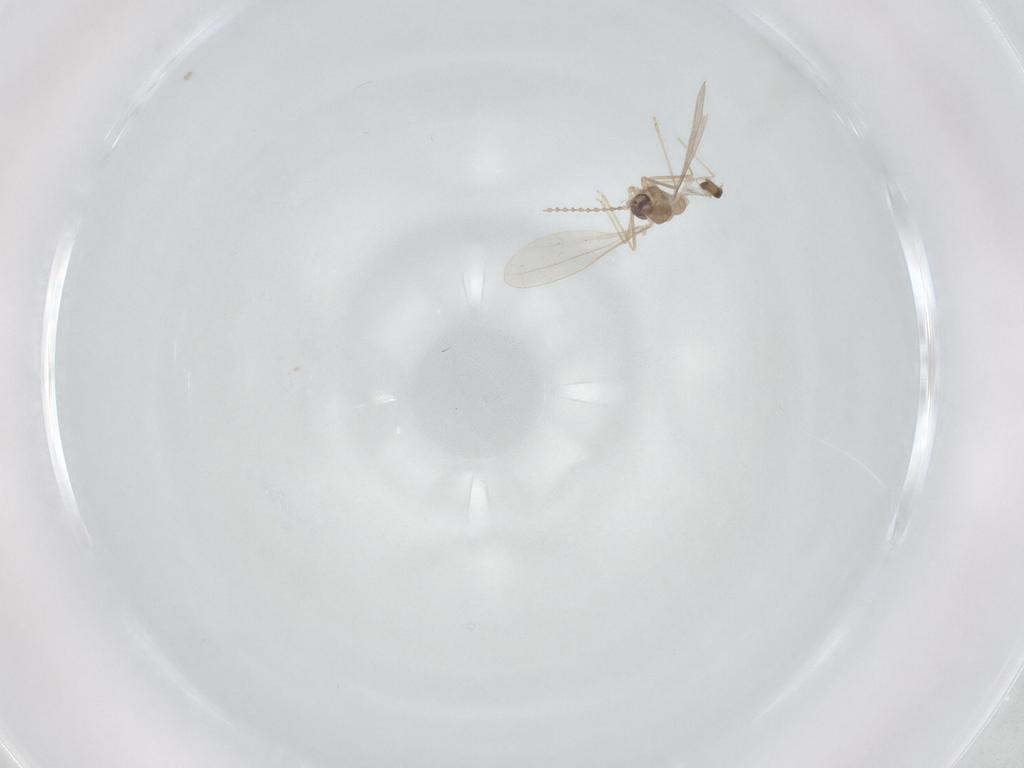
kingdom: Animalia
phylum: Arthropoda
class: Insecta
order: Diptera
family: Cecidomyiidae
